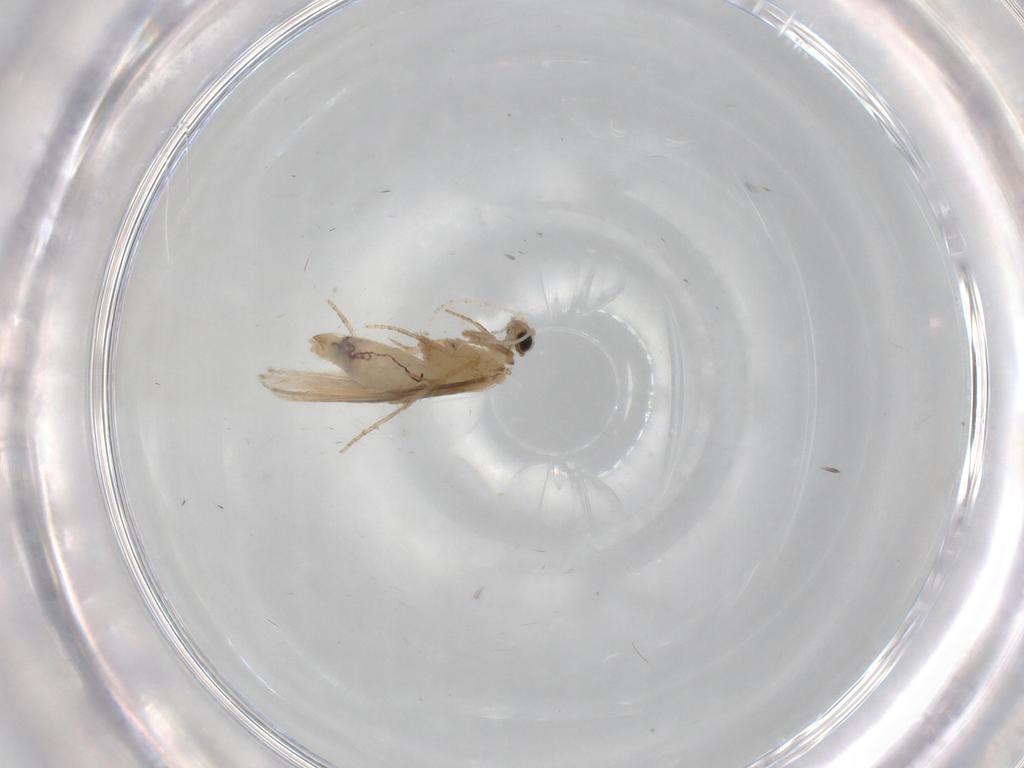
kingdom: Animalia
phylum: Arthropoda
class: Insecta
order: Trichoptera
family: Hydroptilidae
